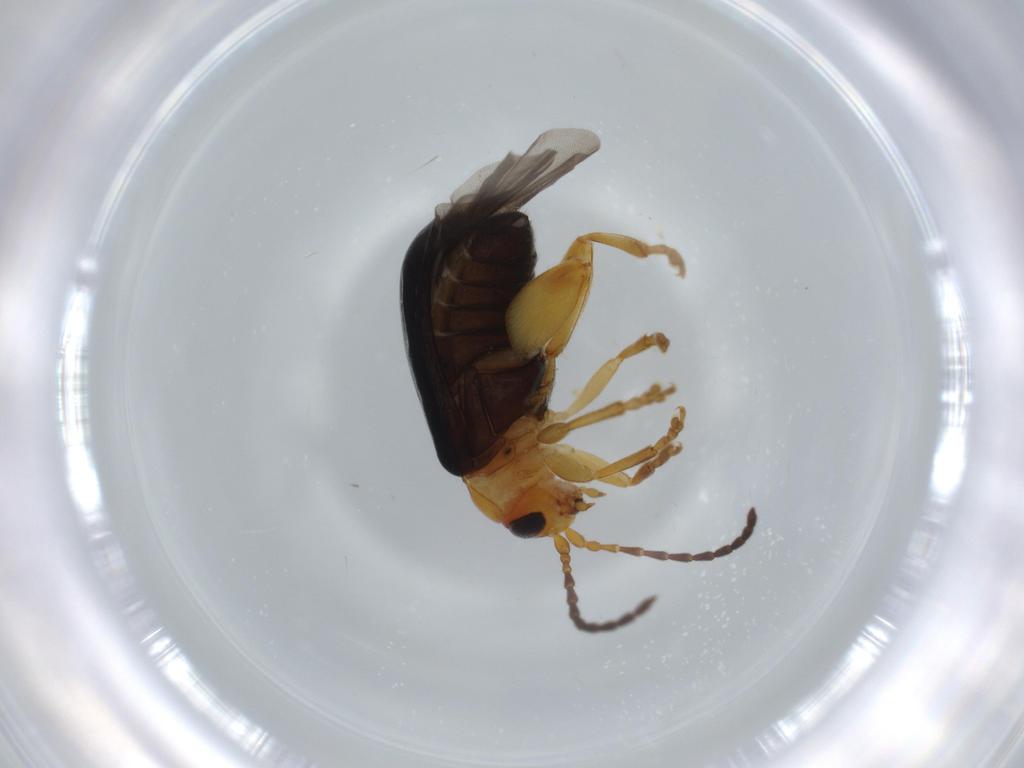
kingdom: Animalia
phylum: Arthropoda
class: Insecta
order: Coleoptera
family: Chrysomelidae
